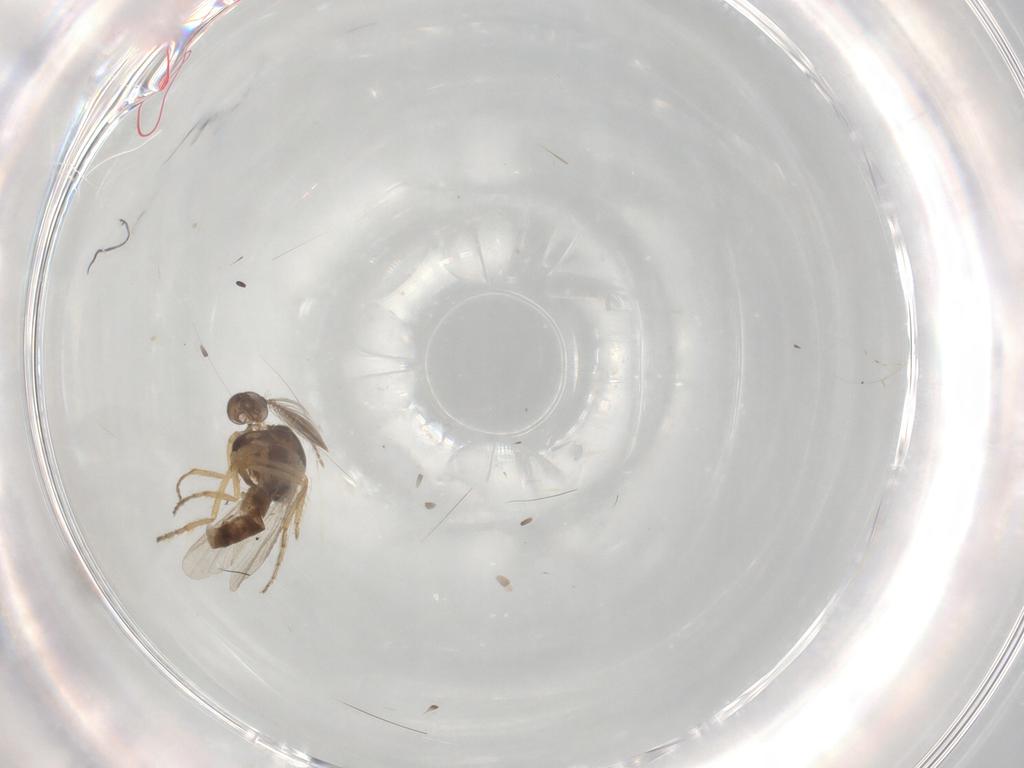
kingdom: Animalia
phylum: Arthropoda
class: Insecta
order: Diptera
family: Ceratopogonidae
